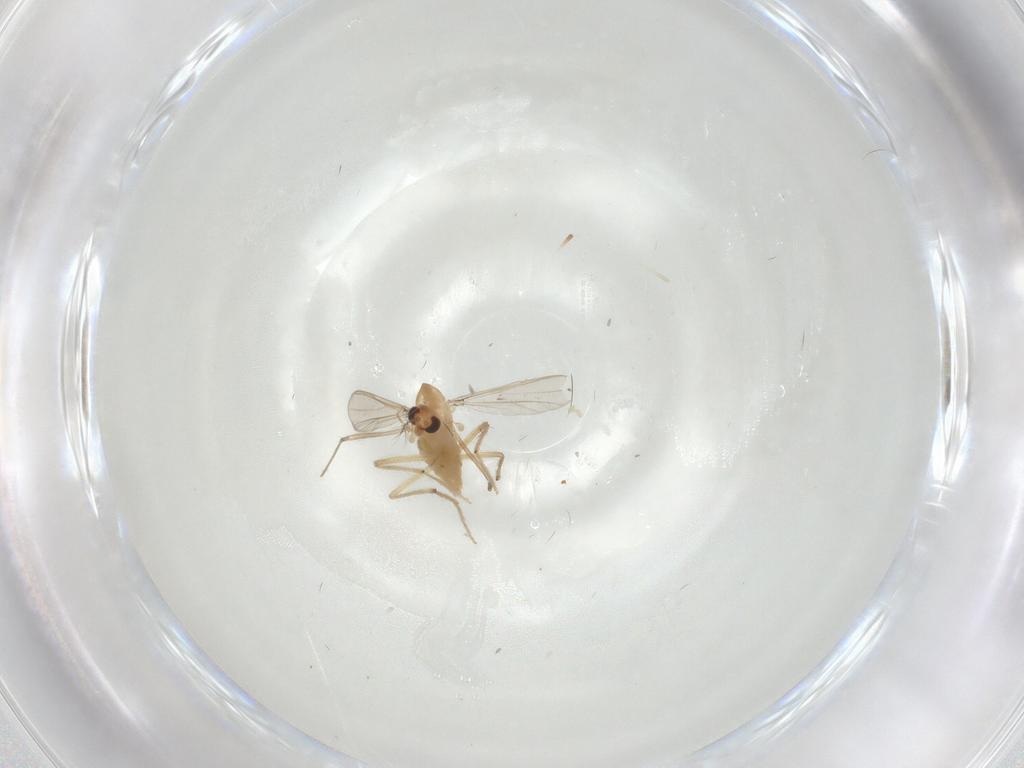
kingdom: Animalia
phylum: Arthropoda
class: Insecta
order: Diptera
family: Chironomidae
